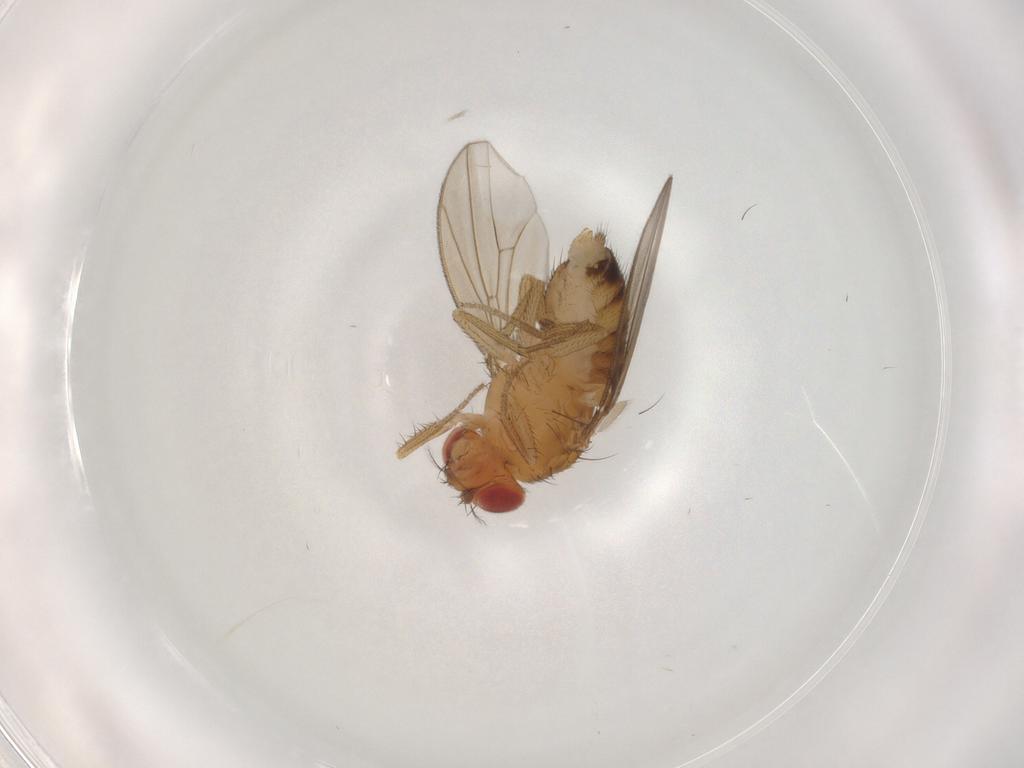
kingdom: Animalia
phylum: Arthropoda
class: Insecta
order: Diptera
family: Drosophilidae
